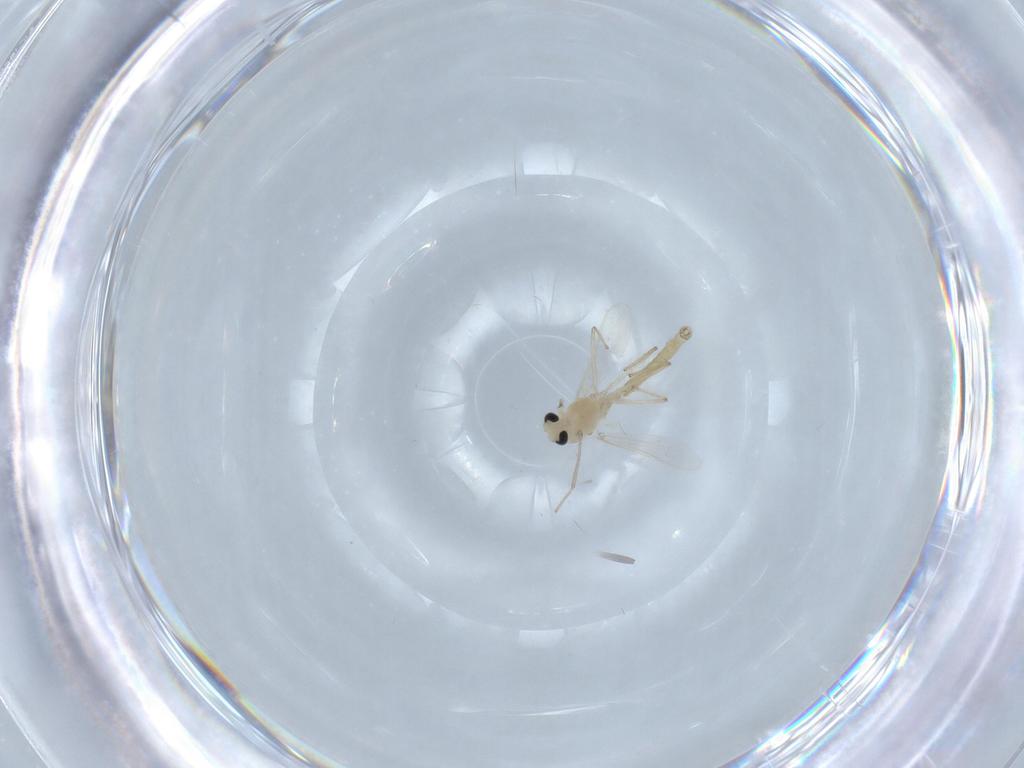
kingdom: Animalia
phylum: Arthropoda
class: Insecta
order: Diptera
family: Chironomidae
